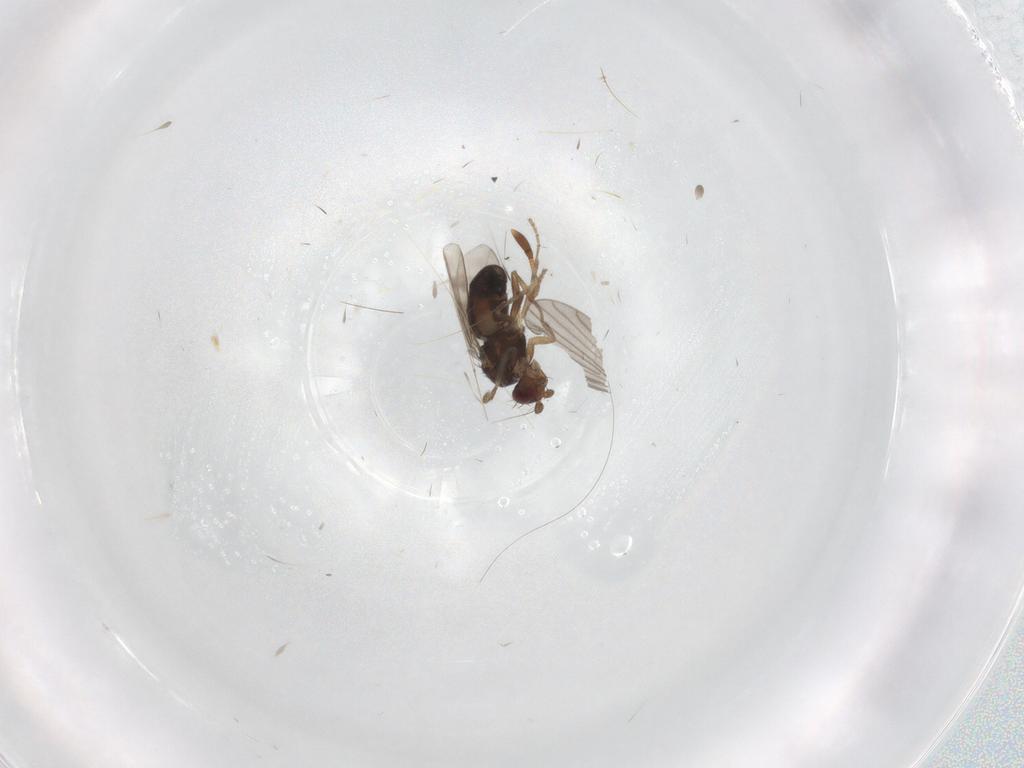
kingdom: Animalia
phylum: Arthropoda
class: Insecta
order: Diptera
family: Sphaeroceridae
